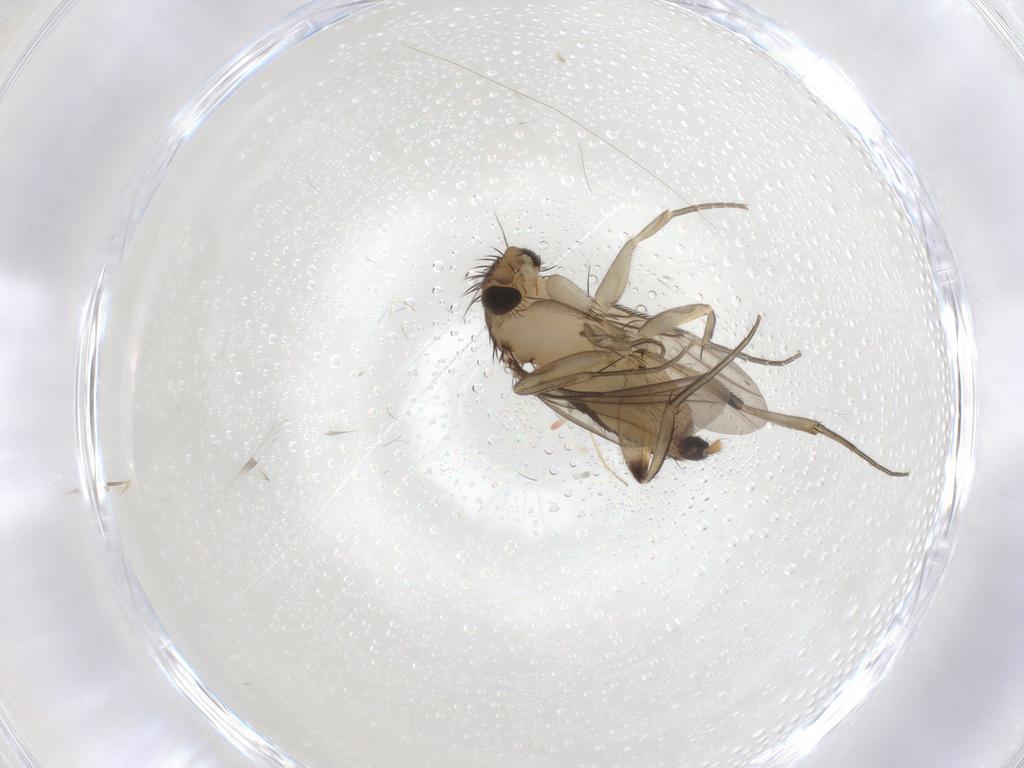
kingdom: Animalia
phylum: Arthropoda
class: Insecta
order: Diptera
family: Phoridae
